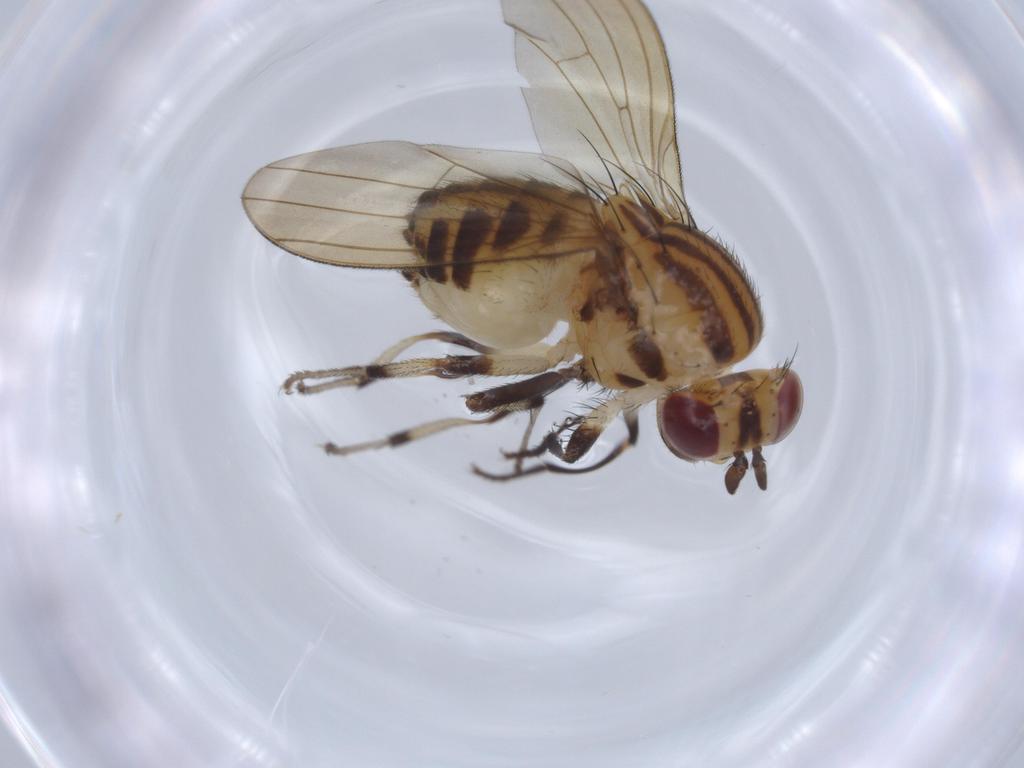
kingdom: Animalia
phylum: Arthropoda
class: Insecta
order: Diptera
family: Lauxaniidae
